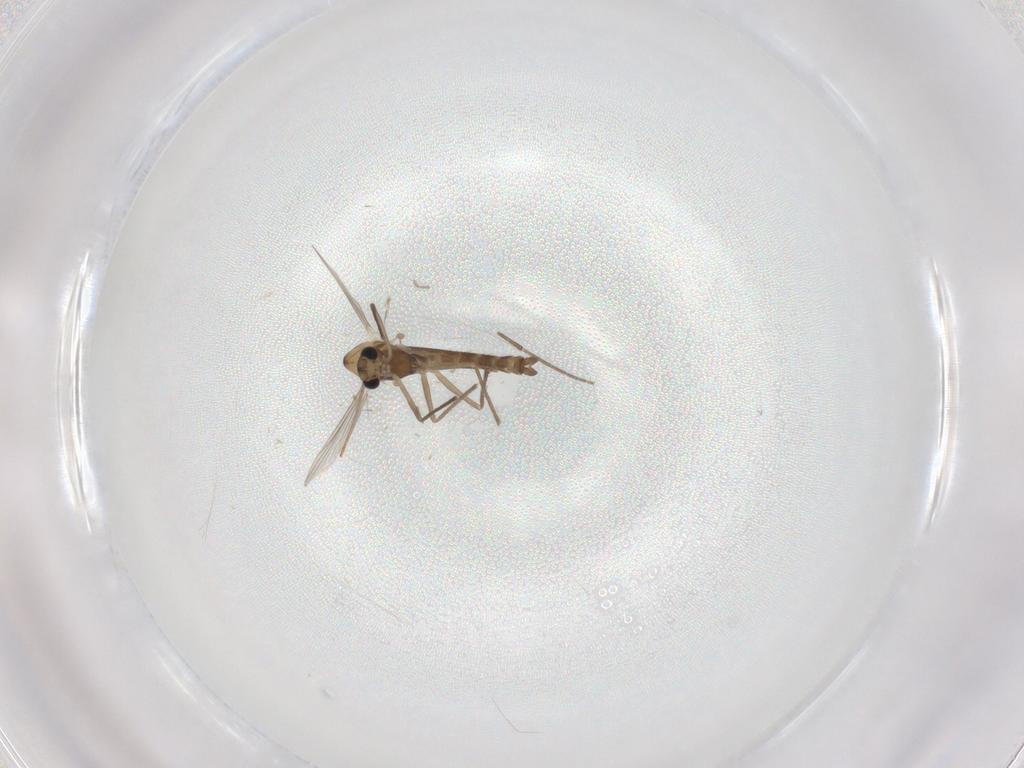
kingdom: Animalia
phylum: Arthropoda
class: Insecta
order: Diptera
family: Chironomidae
